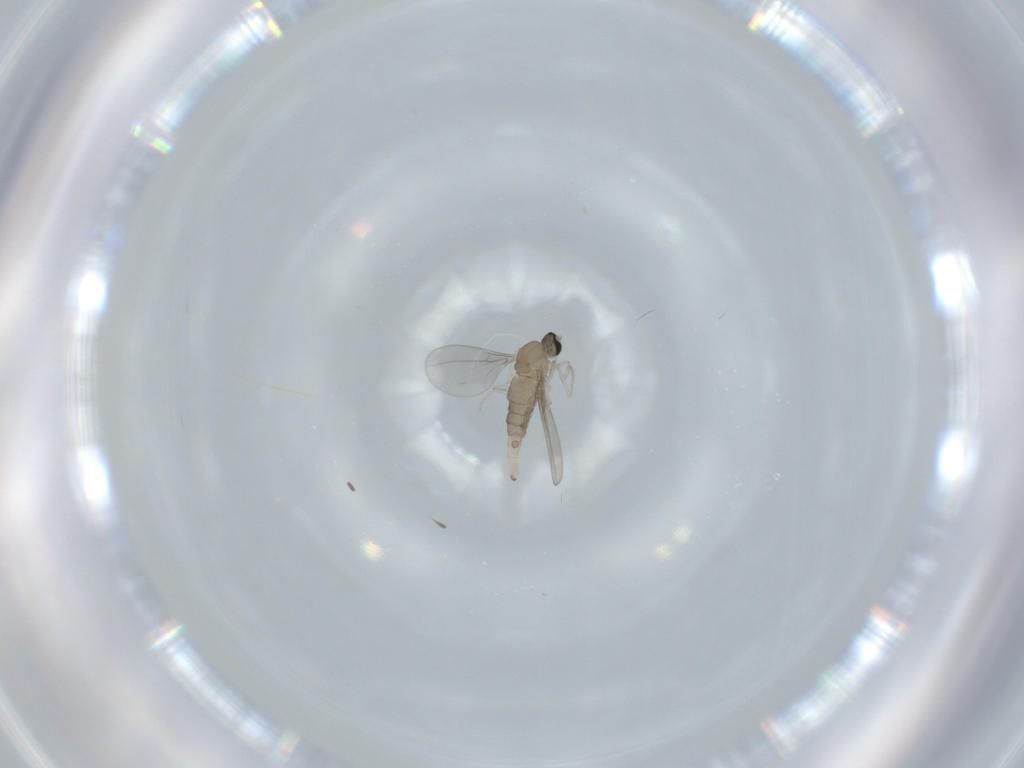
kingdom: Animalia
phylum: Arthropoda
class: Insecta
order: Diptera
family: Cecidomyiidae
